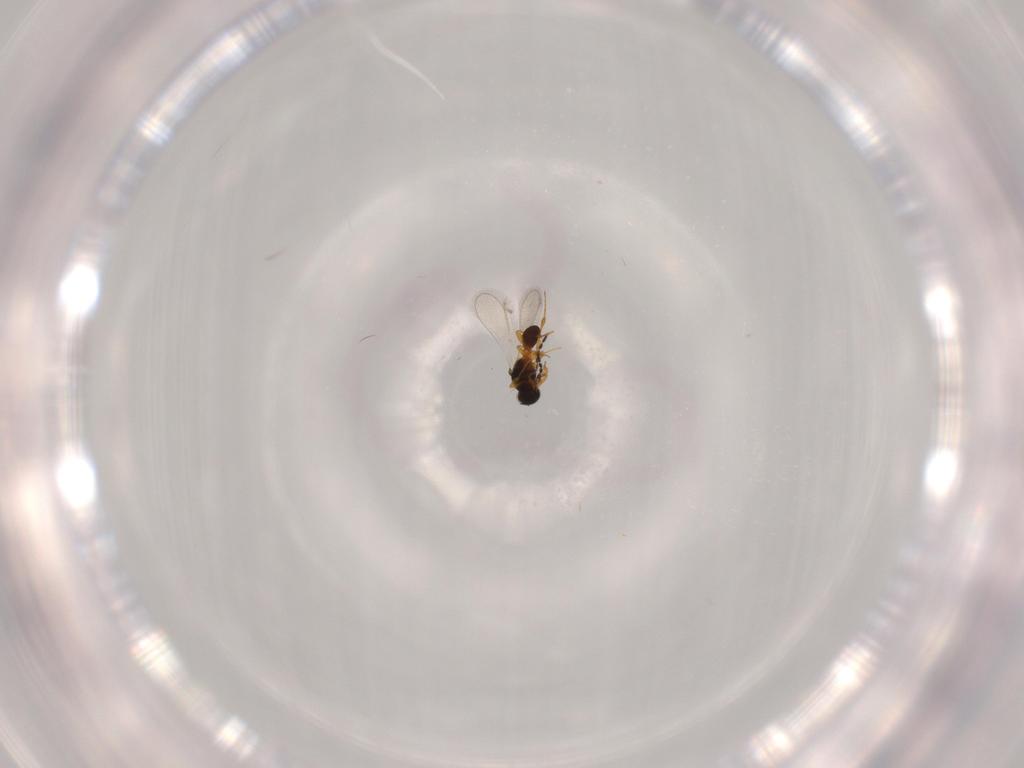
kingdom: Animalia
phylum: Arthropoda
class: Insecta
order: Hymenoptera
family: Platygastridae
